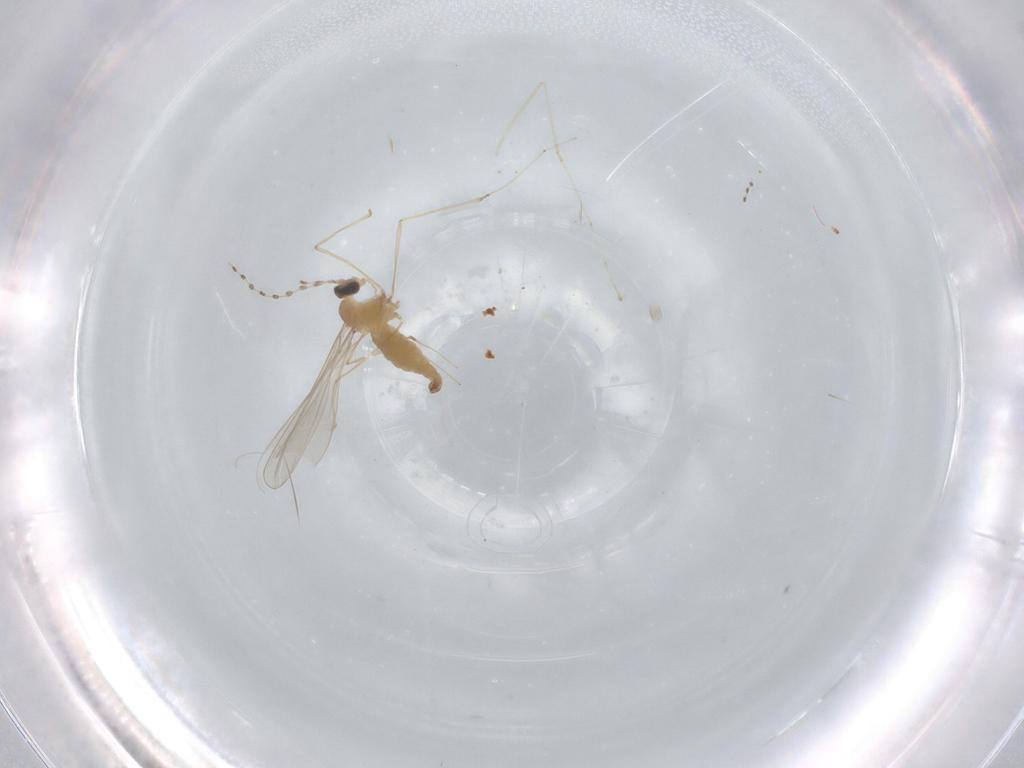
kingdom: Animalia
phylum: Arthropoda
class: Insecta
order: Diptera
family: Cecidomyiidae
